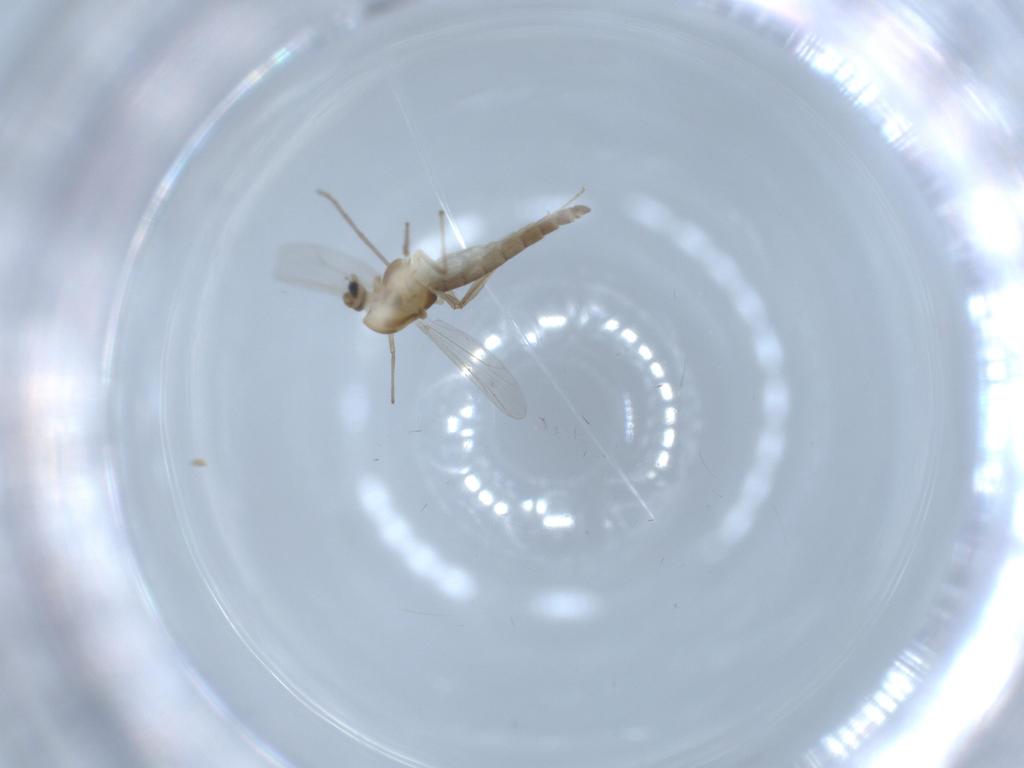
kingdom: Animalia
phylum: Arthropoda
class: Insecta
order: Diptera
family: Chironomidae
